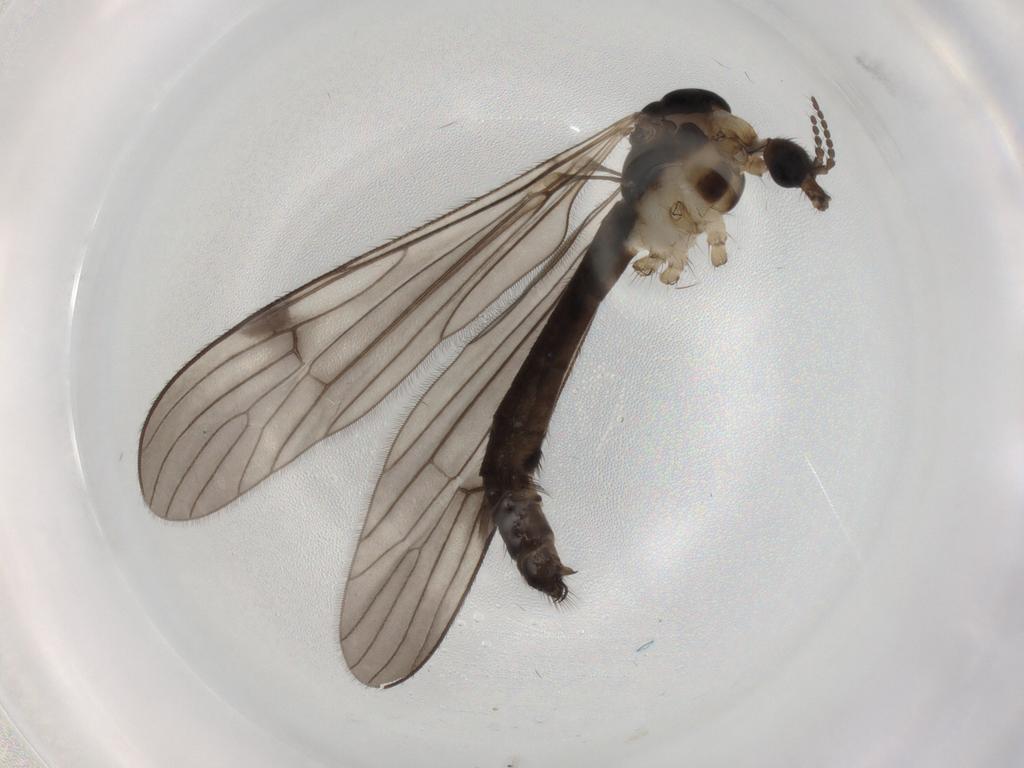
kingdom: Animalia
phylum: Arthropoda
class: Insecta
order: Diptera
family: Limoniidae
